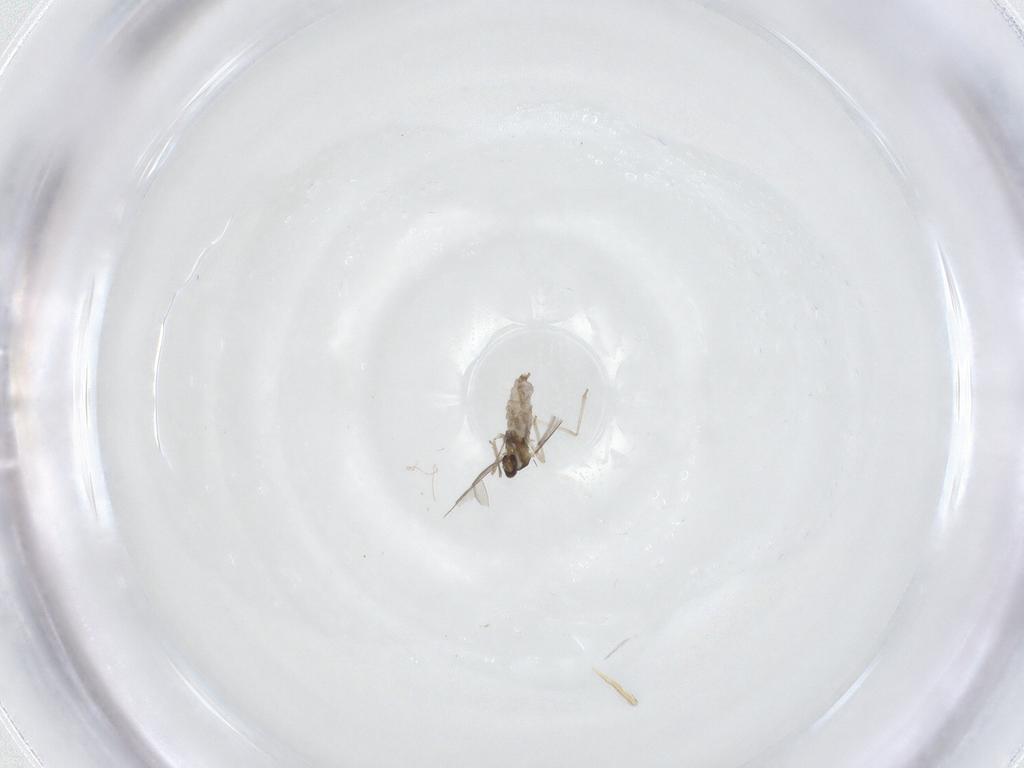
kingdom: Animalia
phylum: Arthropoda
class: Insecta
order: Diptera
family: Cecidomyiidae
